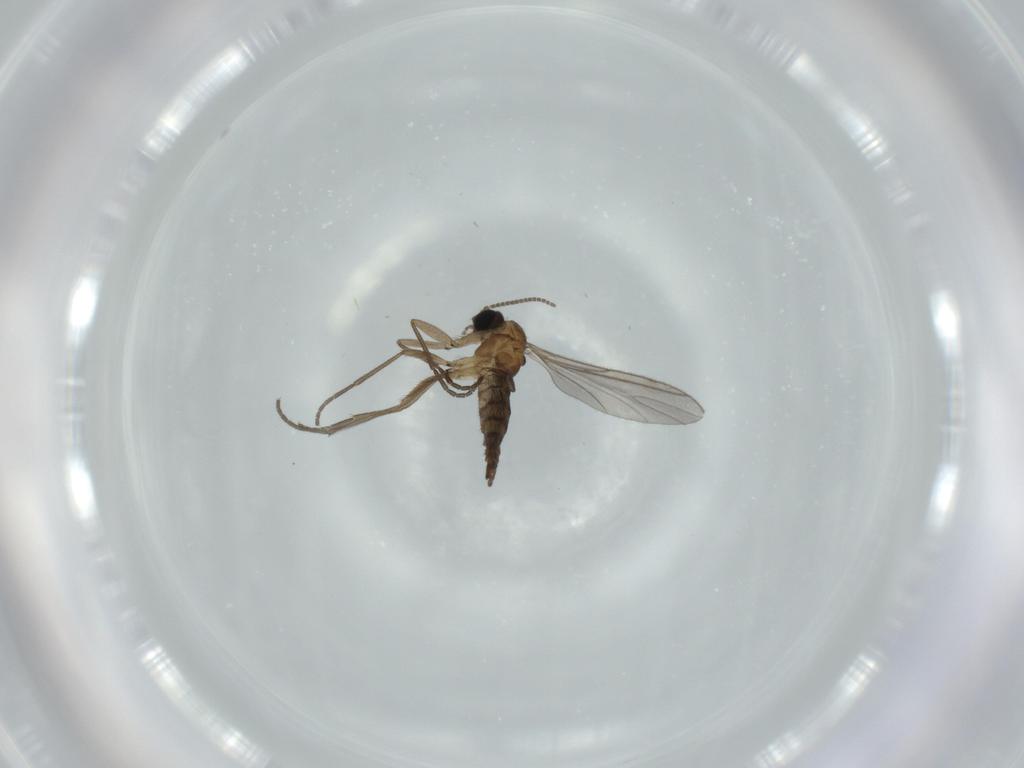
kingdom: Animalia
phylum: Arthropoda
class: Insecta
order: Diptera
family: Sciaridae
